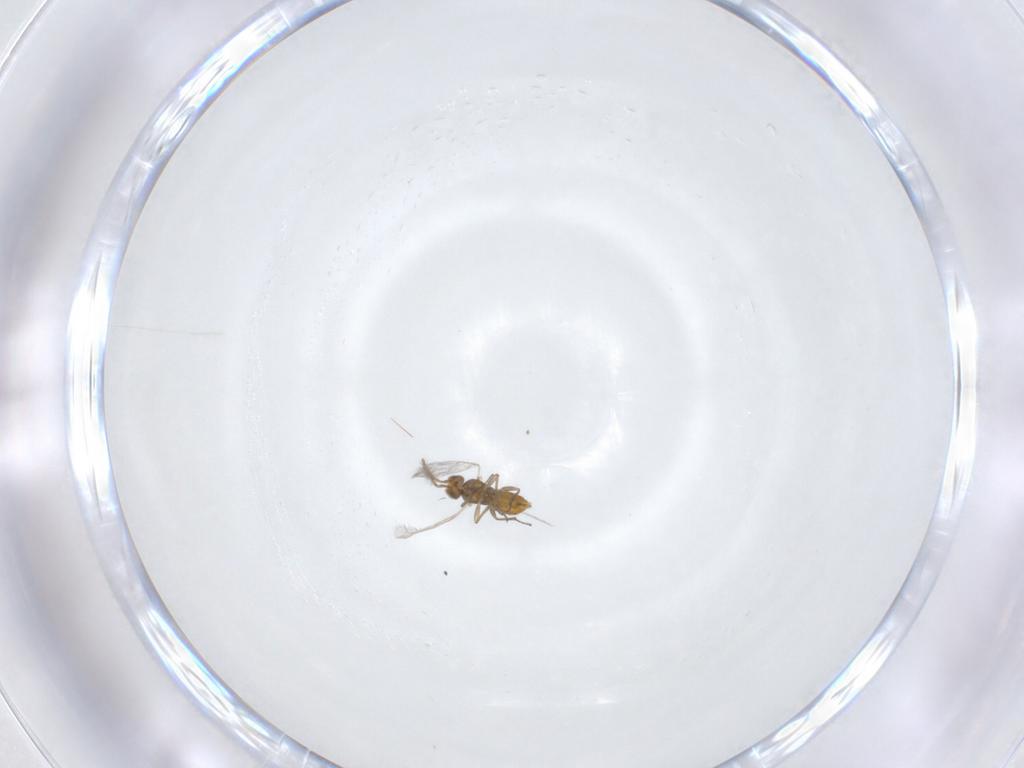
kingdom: Animalia
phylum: Arthropoda
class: Insecta
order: Hymenoptera
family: Aphelinidae
